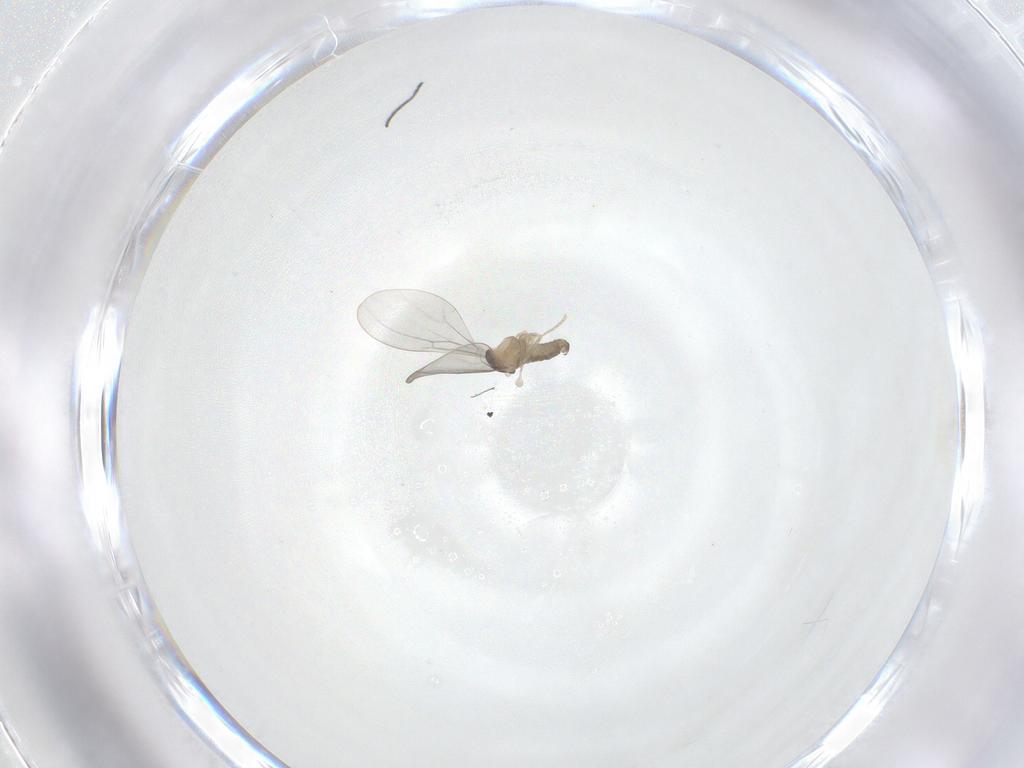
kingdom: Animalia
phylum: Arthropoda
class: Insecta
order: Diptera
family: Cecidomyiidae
